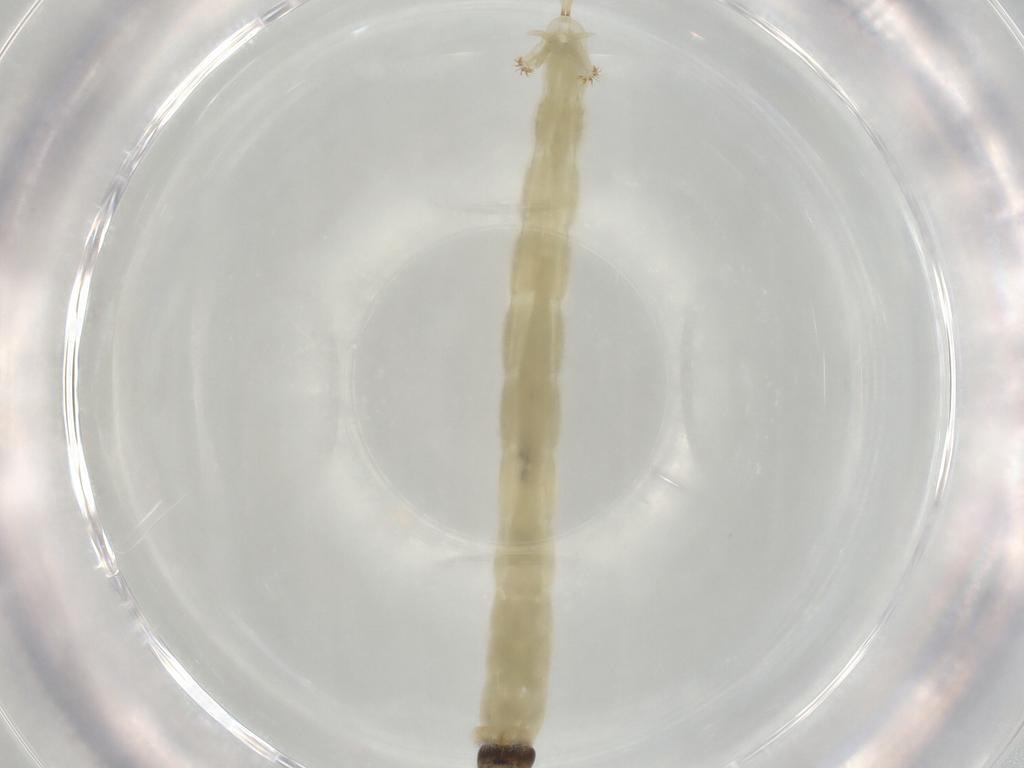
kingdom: Animalia
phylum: Arthropoda
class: Insecta
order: Diptera
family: Chironomidae
